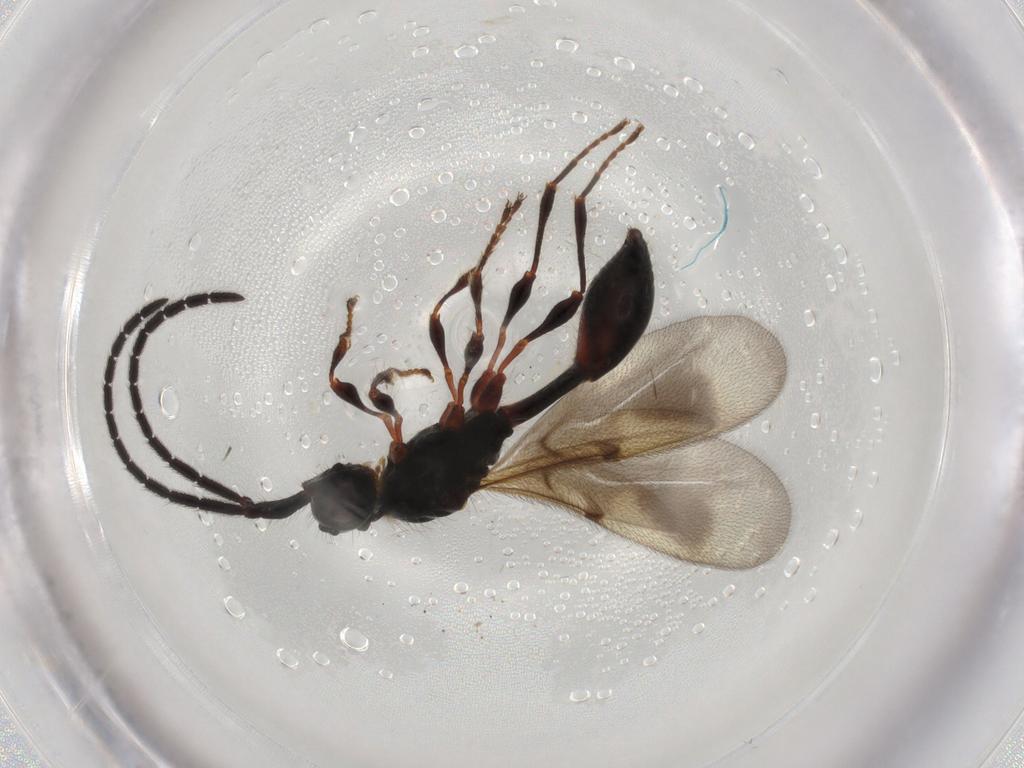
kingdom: Animalia
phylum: Arthropoda
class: Insecta
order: Hymenoptera
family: Diapriidae
